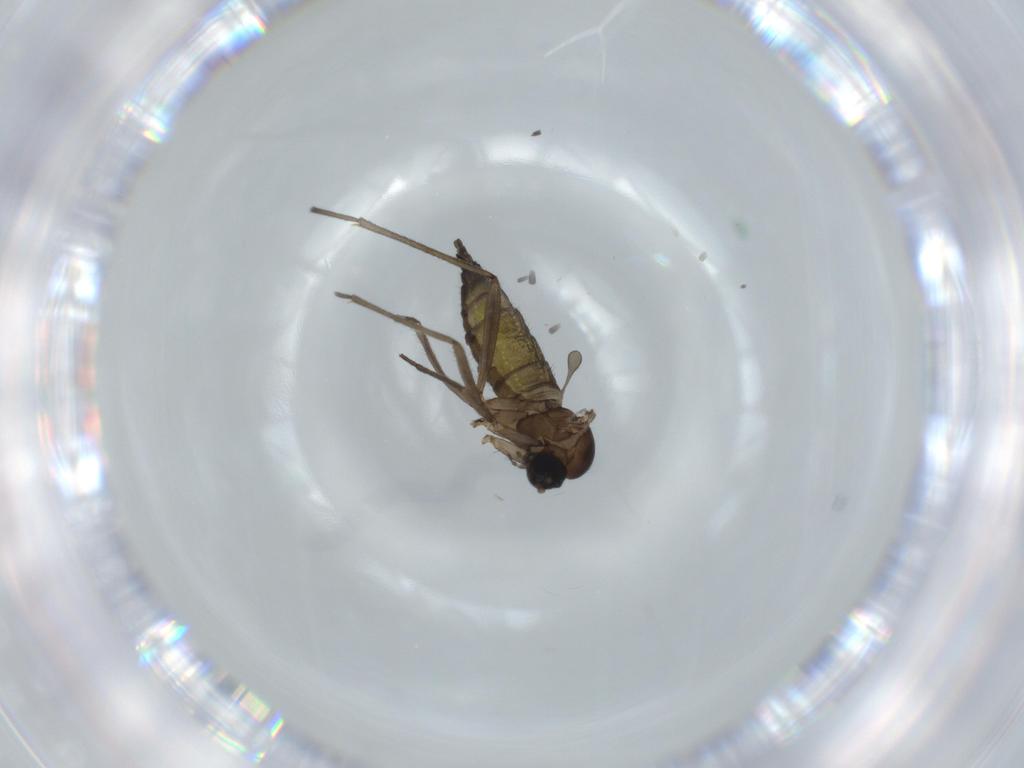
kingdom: Animalia
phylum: Arthropoda
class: Insecta
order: Diptera
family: Sciaridae
